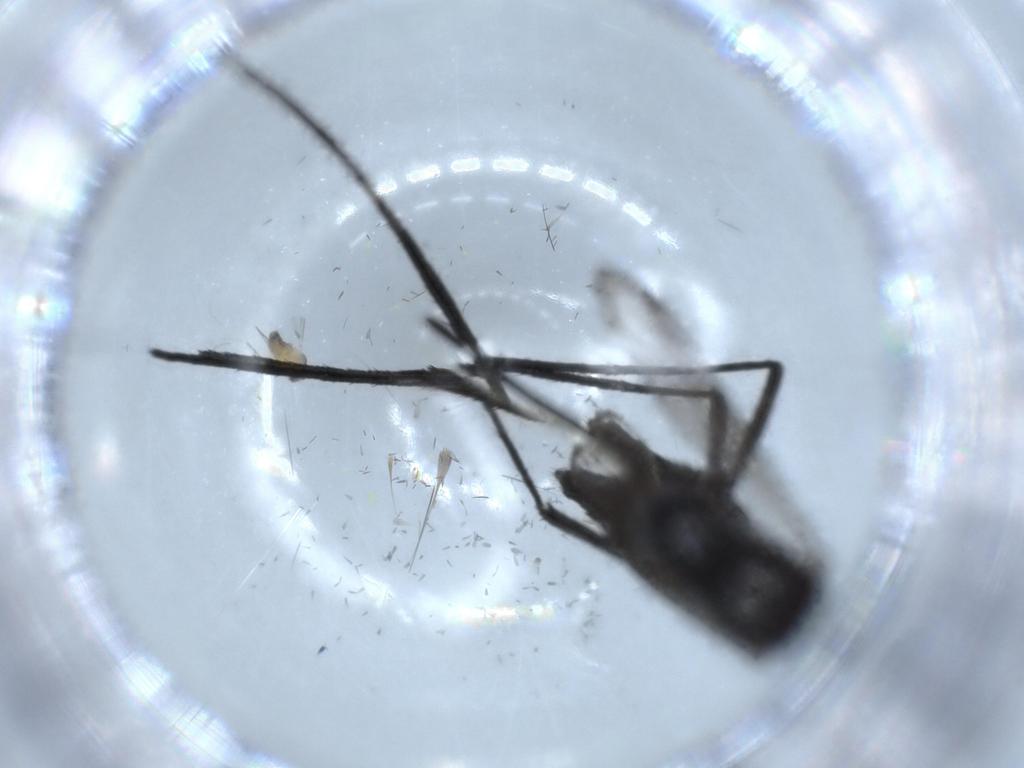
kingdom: Animalia
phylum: Arthropoda
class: Insecta
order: Diptera
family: Sciaridae
